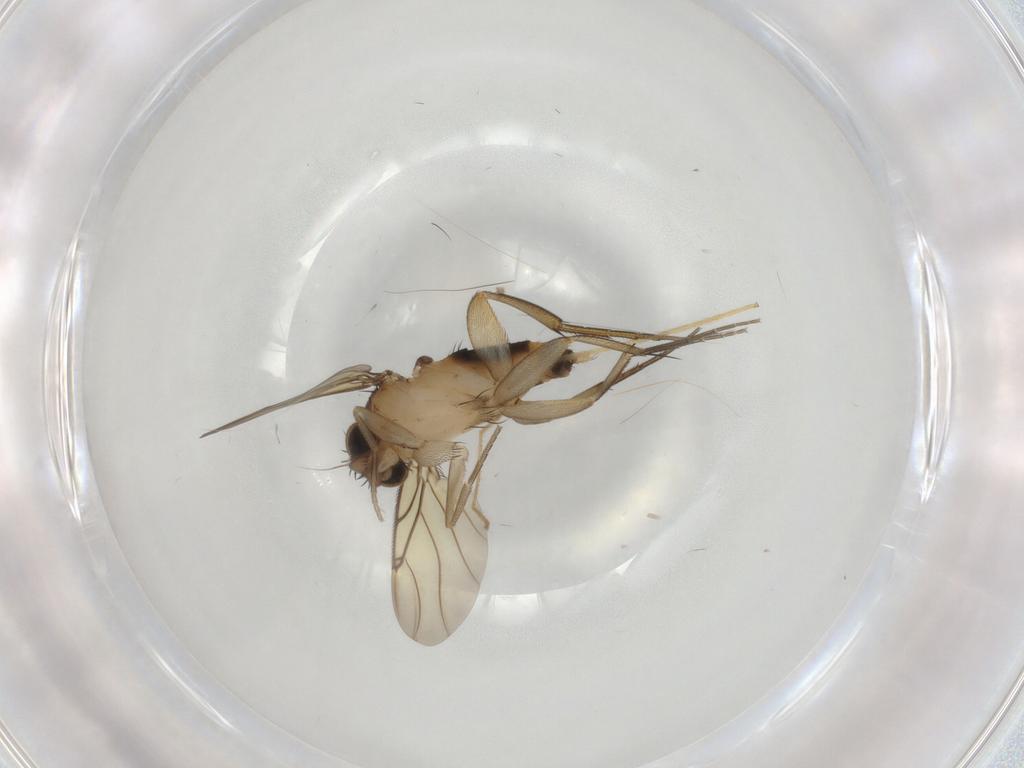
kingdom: Animalia
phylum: Arthropoda
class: Insecta
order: Diptera
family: Chironomidae
